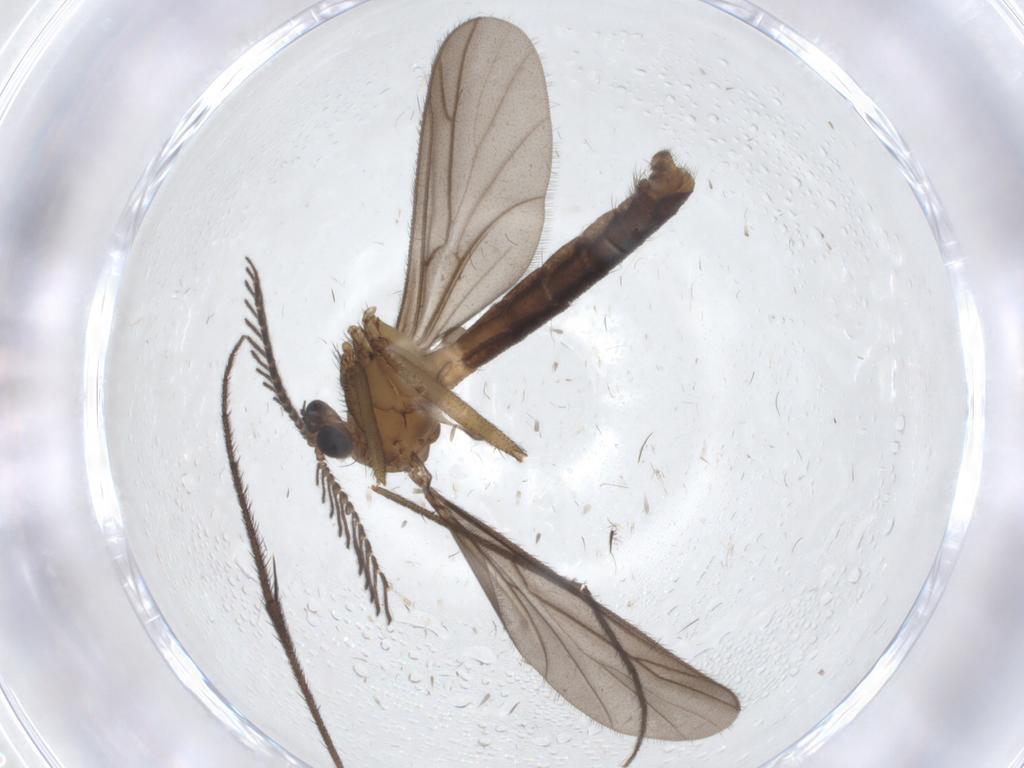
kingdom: Animalia
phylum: Arthropoda
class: Insecta
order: Diptera
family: Ditomyiidae
